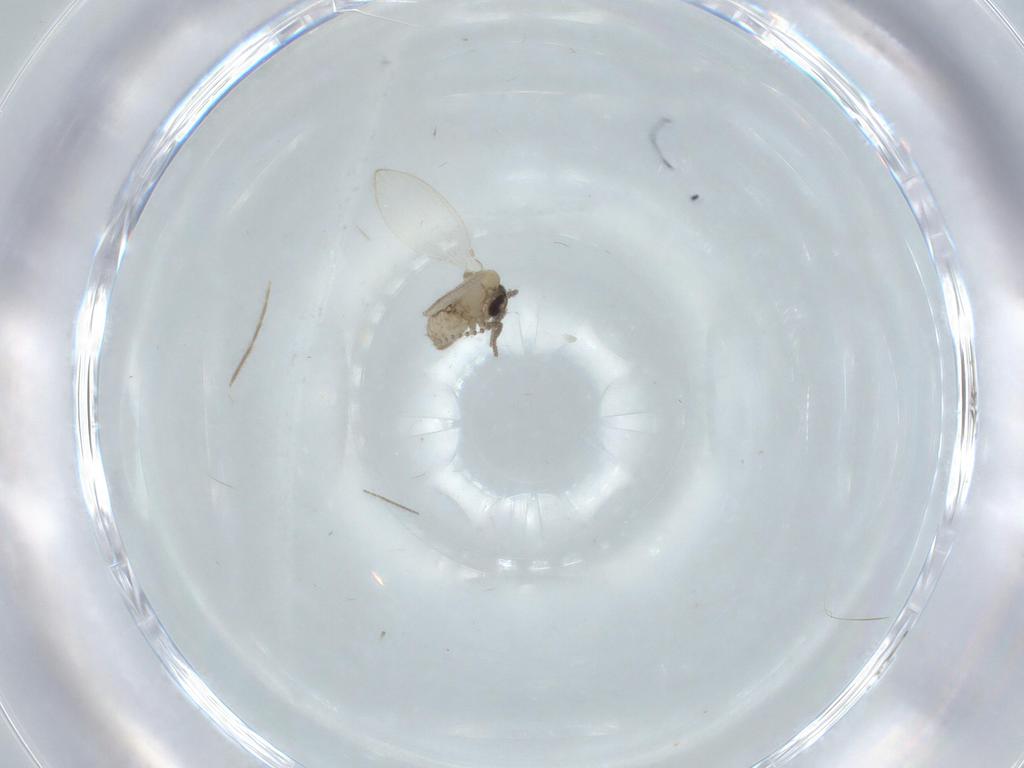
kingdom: Animalia
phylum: Arthropoda
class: Insecta
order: Diptera
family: Chironomidae
